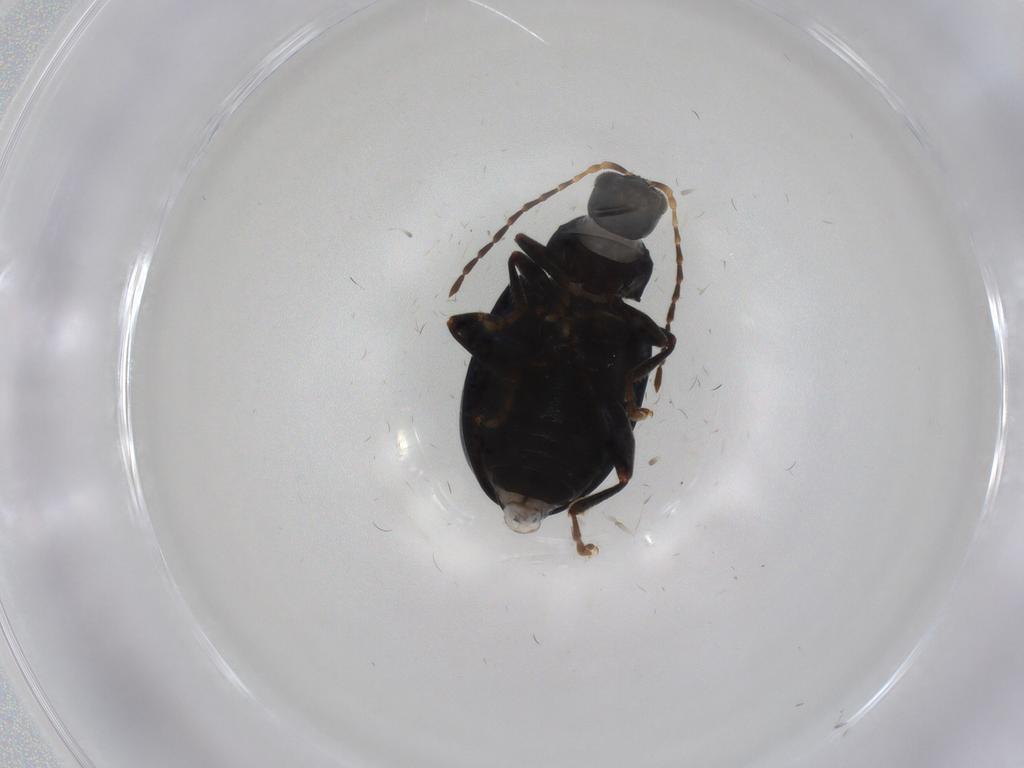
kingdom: Animalia
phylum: Arthropoda
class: Insecta
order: Coleoptera
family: Chrysomelidae
